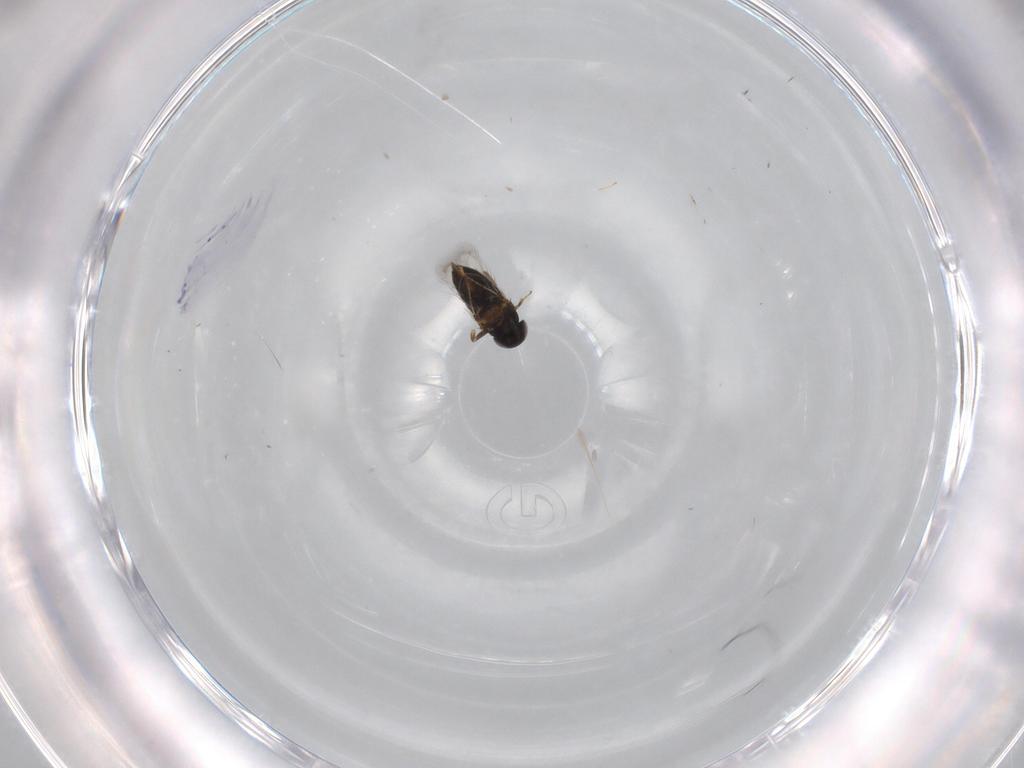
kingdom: Animalia
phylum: Arthropoda
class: Insecta
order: Hymenoptera
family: Signiphoridae
